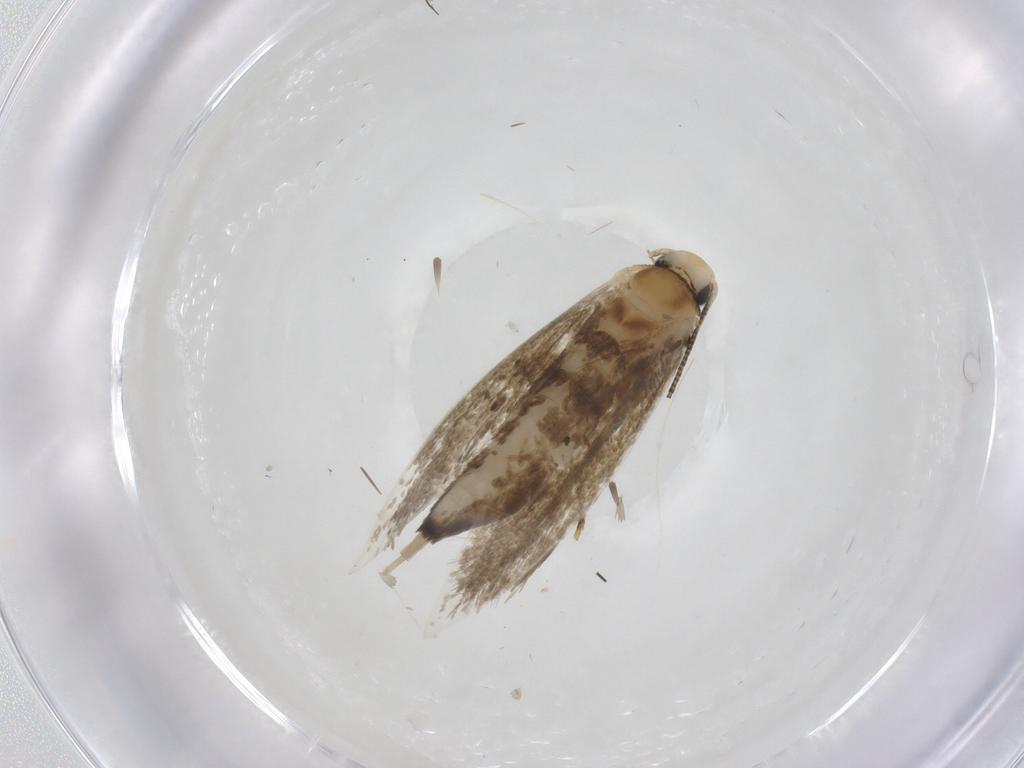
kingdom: Animalia
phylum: Arthropoda
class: Insecta
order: Lepidoptera
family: Tineidae
